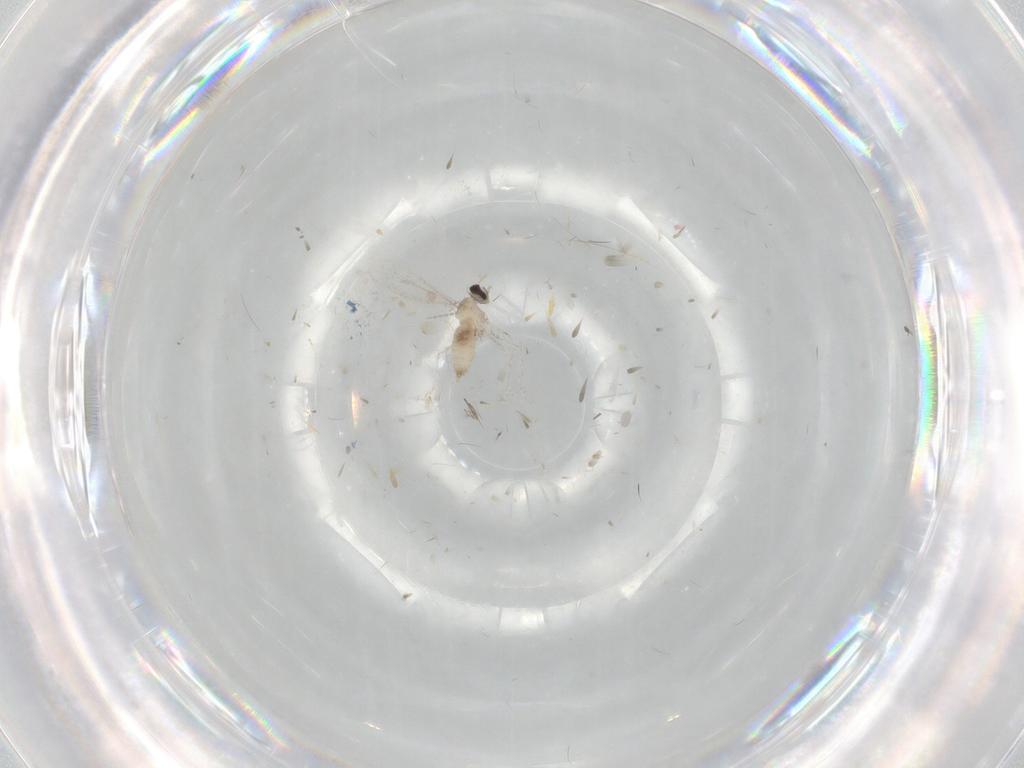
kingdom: Animalia
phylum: Arthropoda
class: Insecta
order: Diptera
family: Cecidomyiidae
